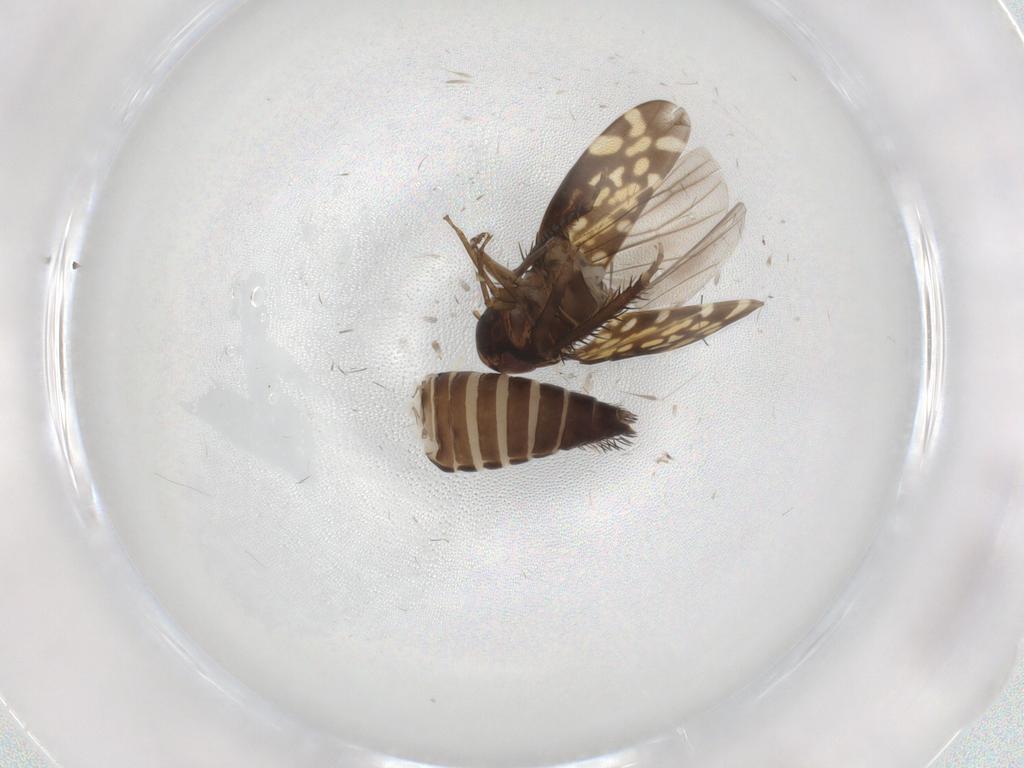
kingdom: Animalia
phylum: Arthropoda
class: Insecta
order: Hemiptera
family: Cicadellidae
